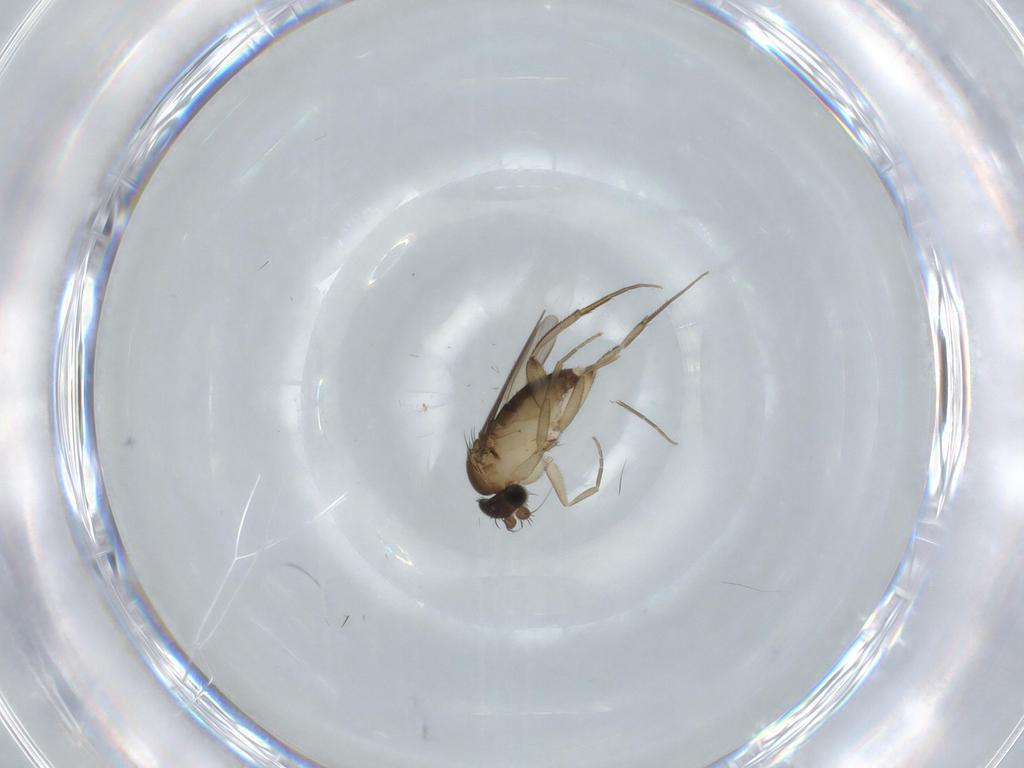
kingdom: Animalia
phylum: Arthropoda
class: Insecta
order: Diptera
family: Phoridae
